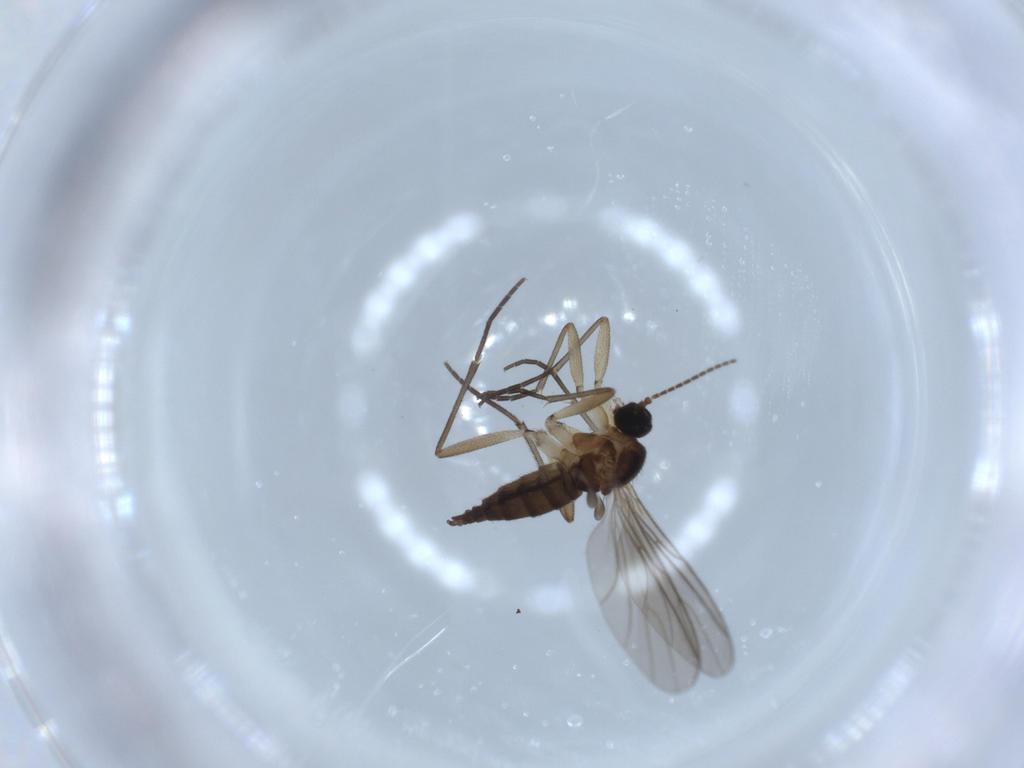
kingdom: Animalia
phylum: Arthropoda
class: Insecta
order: Diptera
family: Sciaridae
